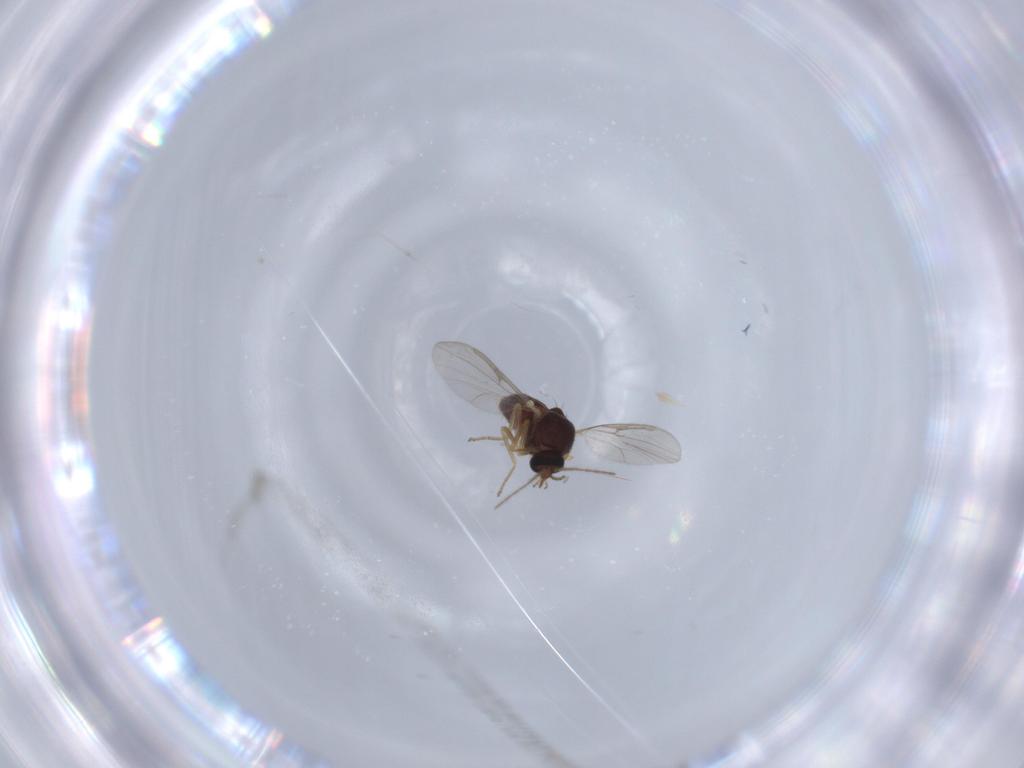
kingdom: Animalia
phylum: Arthropoda
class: Insecta
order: Diptera
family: Ceratopogonidae
